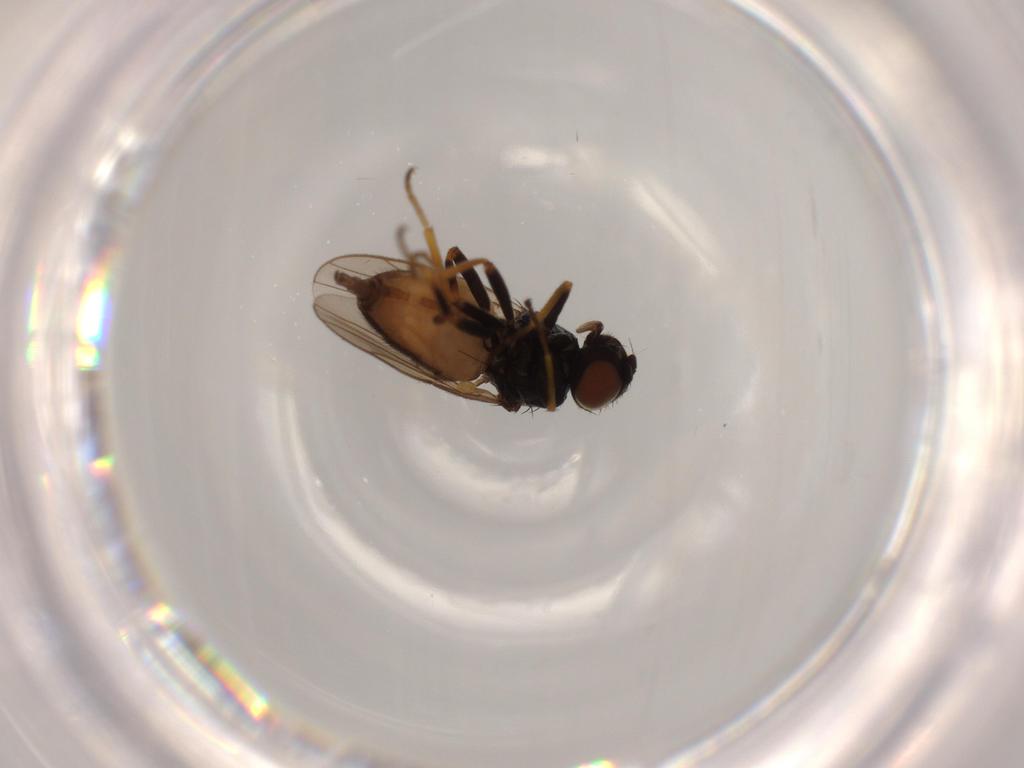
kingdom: Animalia
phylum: Arthropoda
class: Insecta
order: Diptera
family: Chloropidae
